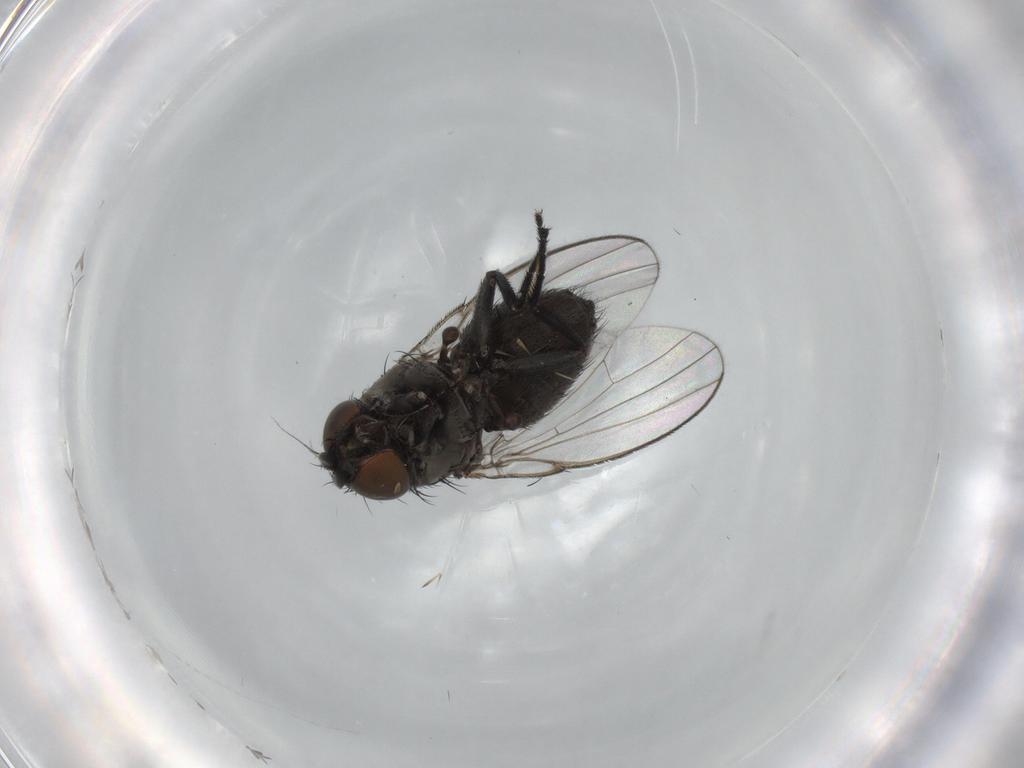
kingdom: Animalia
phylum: Arthropoda
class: Insecta
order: Diptera
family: Milichiidae
